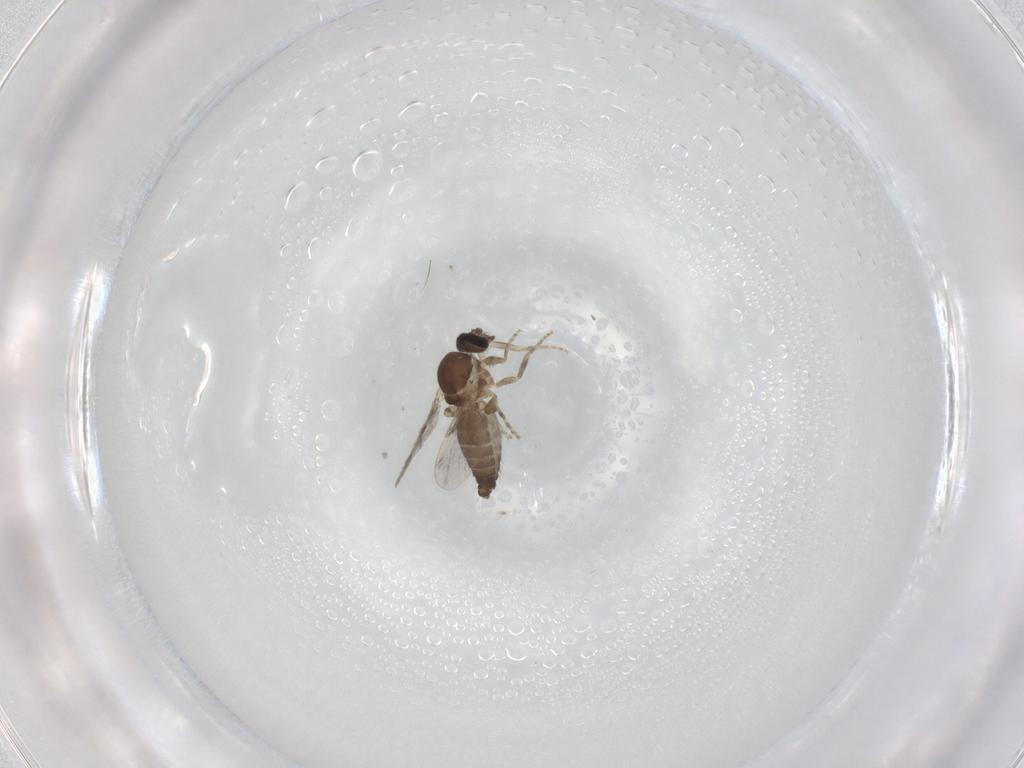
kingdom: Animalia
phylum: Arthropoda
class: Insecta
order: Diptera
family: Ceratopogonidae
